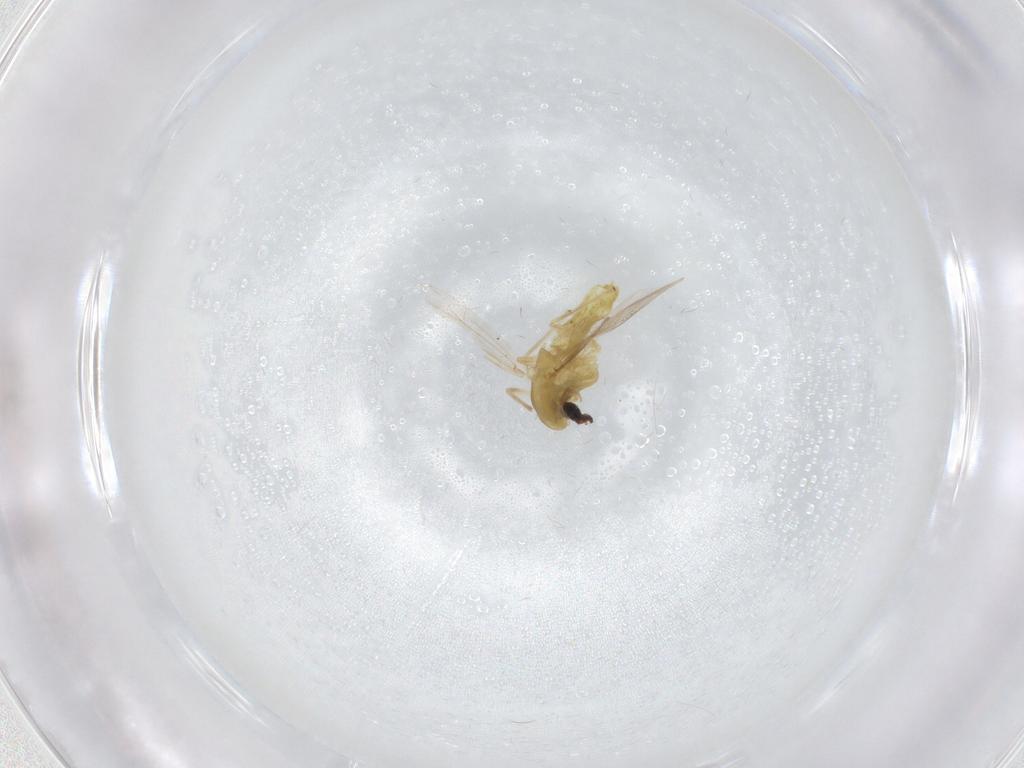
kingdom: Animalia
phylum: Arthropoda
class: Insecta
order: Diptera
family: Chironomidae
